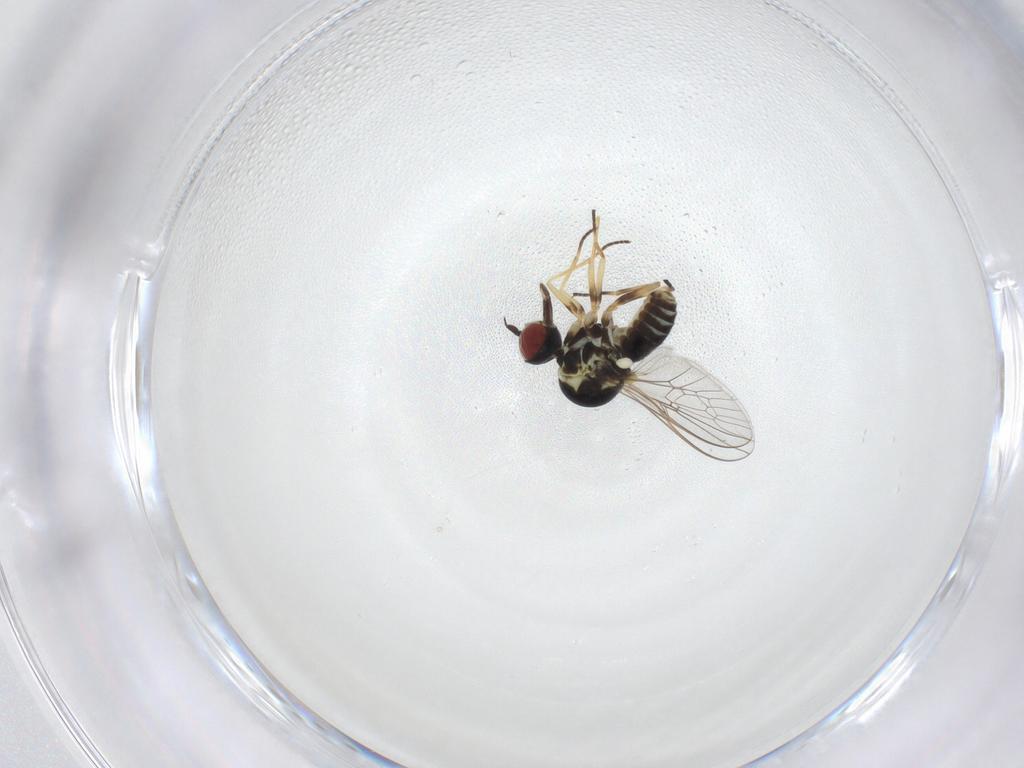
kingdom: Animalia
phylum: Arthropoda
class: Insecta
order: Diptera
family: Bombyliidae
